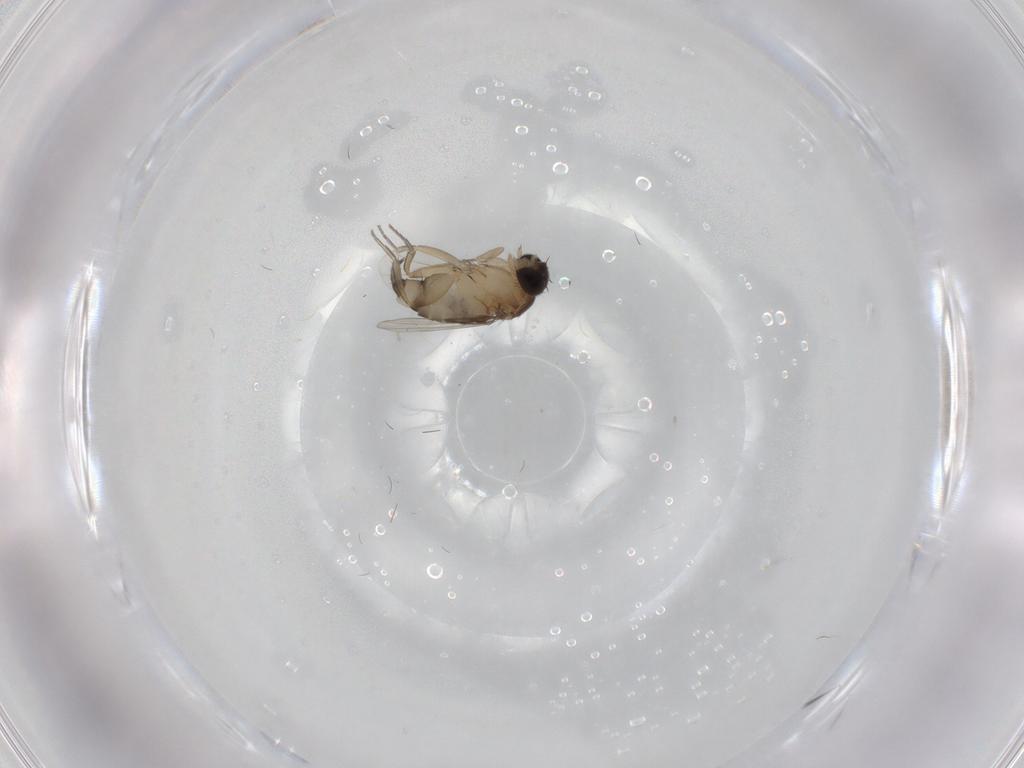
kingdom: Animalia
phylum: Arthropoda
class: Insecta
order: Diptera
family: Phoridae
